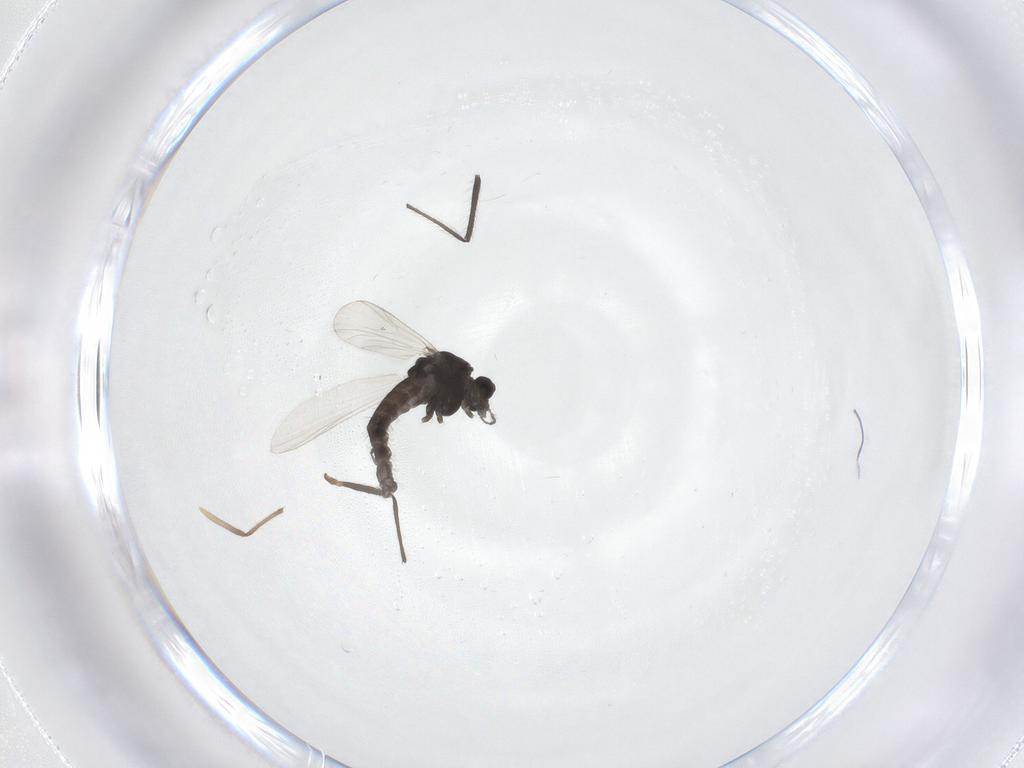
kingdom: Animalia
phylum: Arthropoda
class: Insecta
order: Diptera
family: Chironomidae
